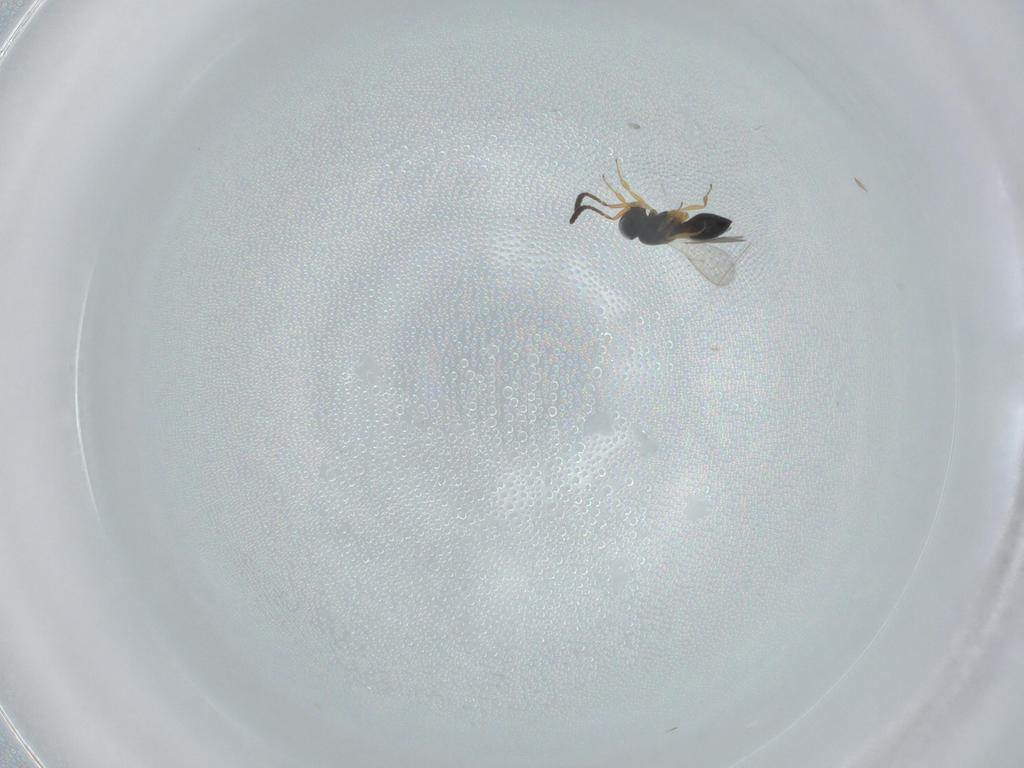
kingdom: Animalia
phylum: Arthropoda
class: Insecta
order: Hymenoptera
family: Scelionidae
